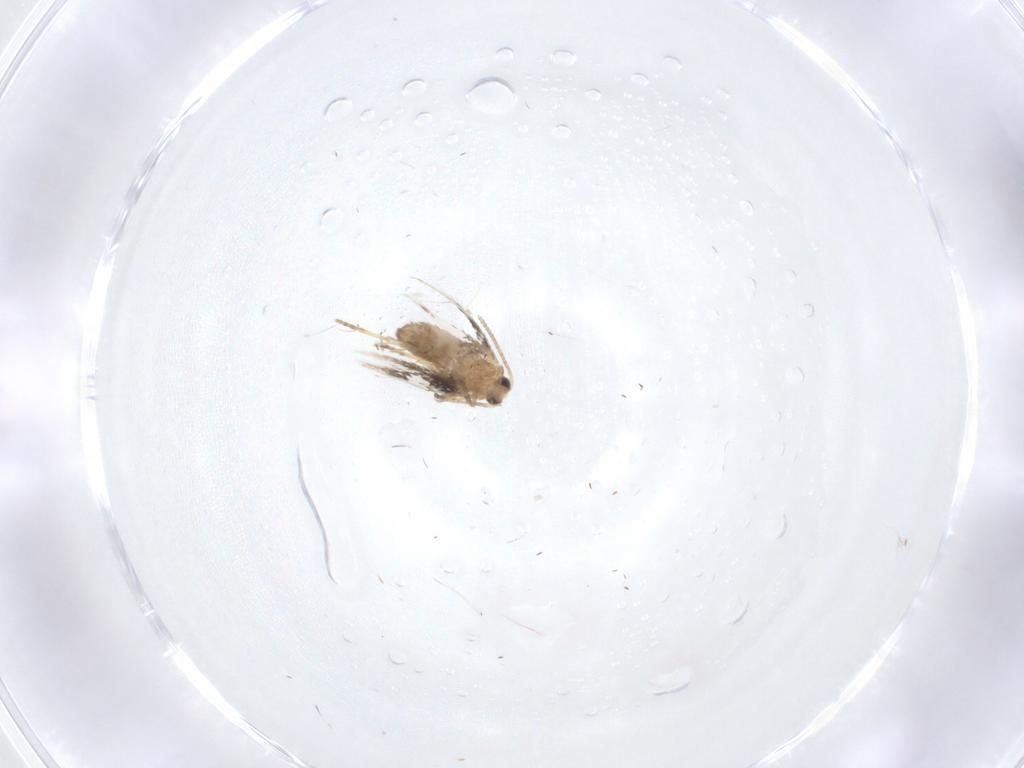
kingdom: Animalia
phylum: Arthropoda
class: Insecta
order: Lepidoptera
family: Nepticulidae
